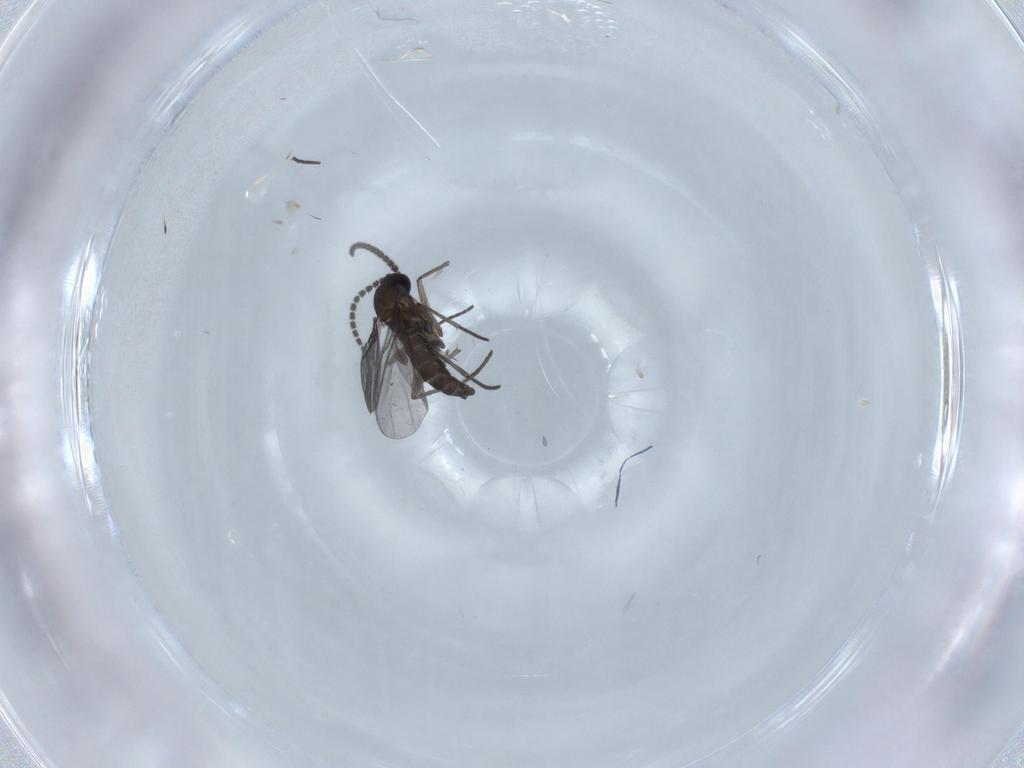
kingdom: Animalia
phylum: Arthropoda
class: Insecta
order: Diptera
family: Sciaridae
